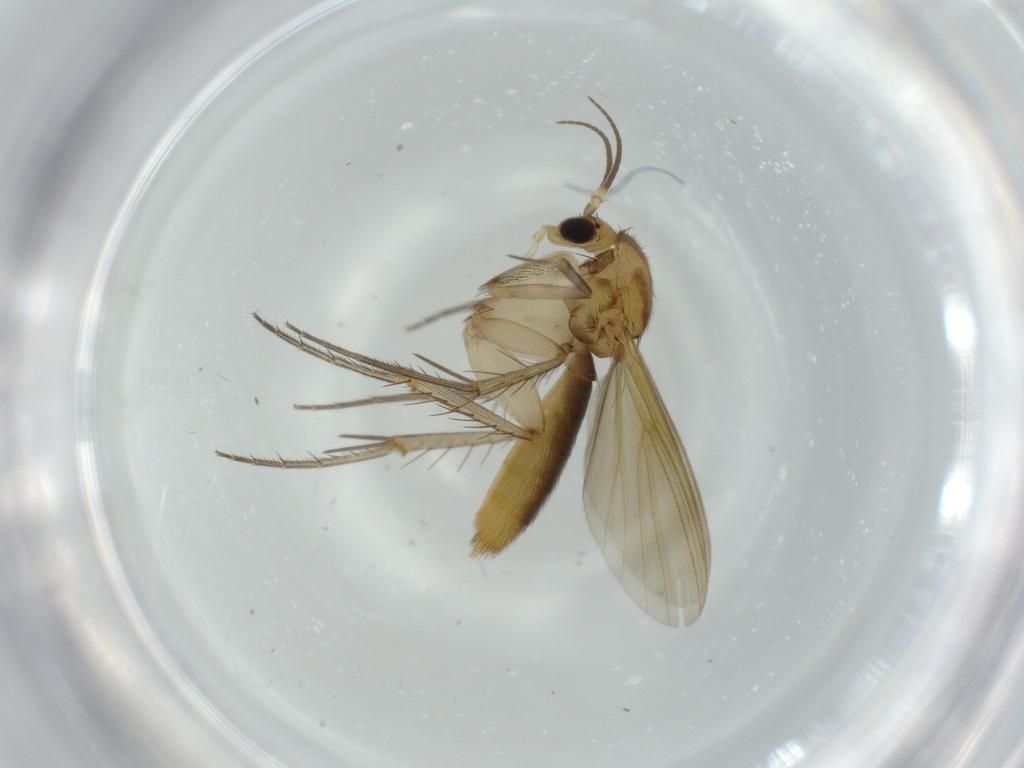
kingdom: Animalia
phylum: Arthropoda
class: Insecta
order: Diptera
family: Mycetophilidae
